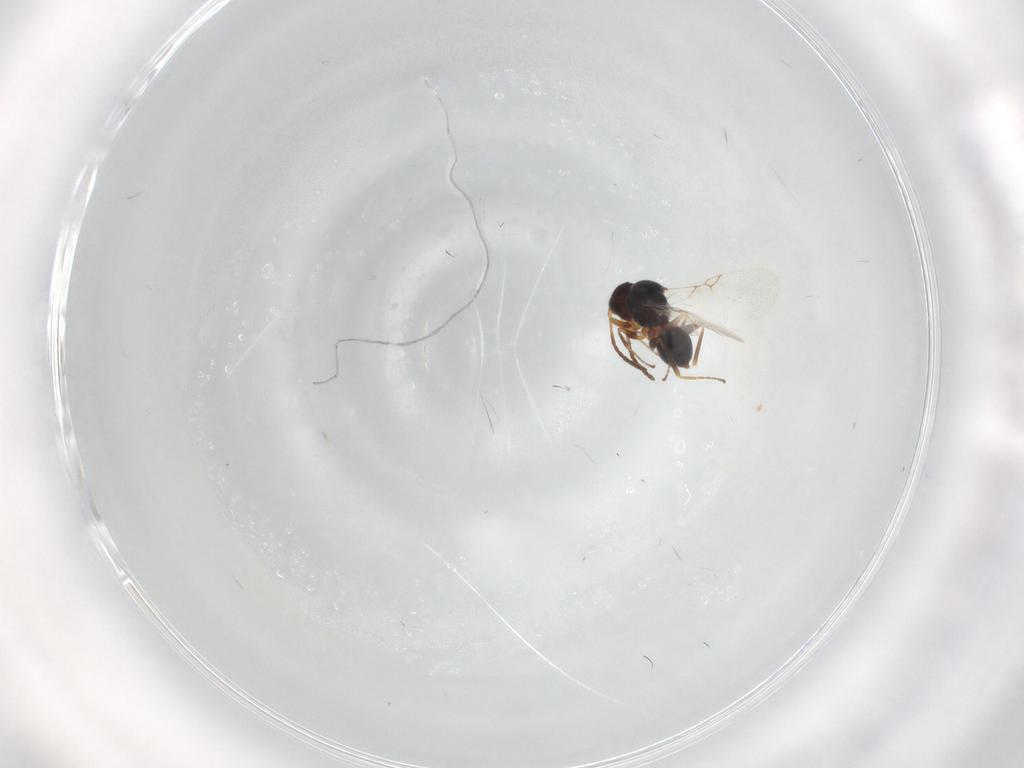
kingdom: Animalia
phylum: Arthropoda
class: Insecta
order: Hymenoptera
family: Figitidae
